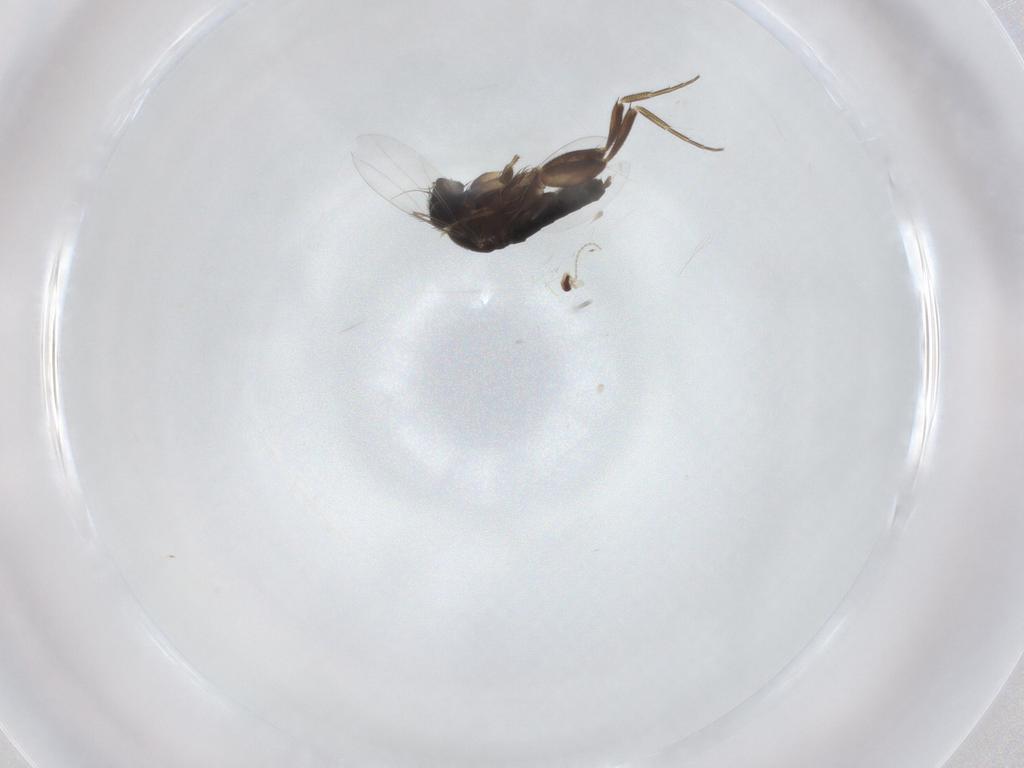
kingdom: Animalia
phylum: Arthropoda
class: Insecta
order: Diptera
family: Phoridae
